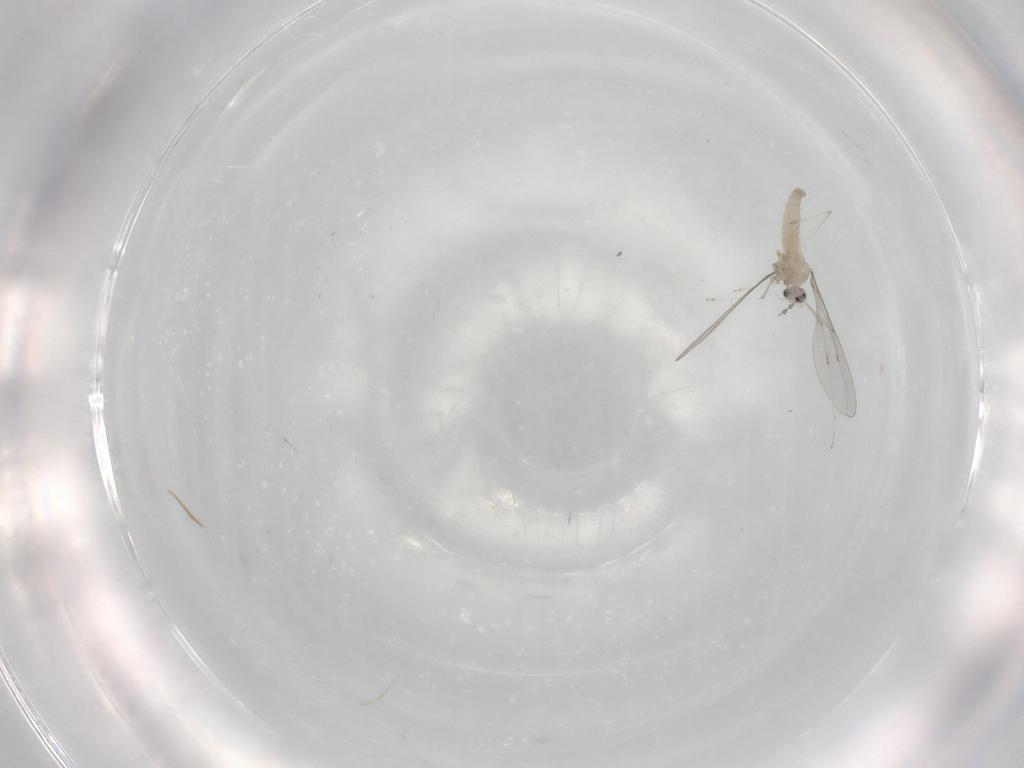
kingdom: Animalia
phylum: Arthropoda
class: Insecta
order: Diptera
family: Cecidomyiidae
